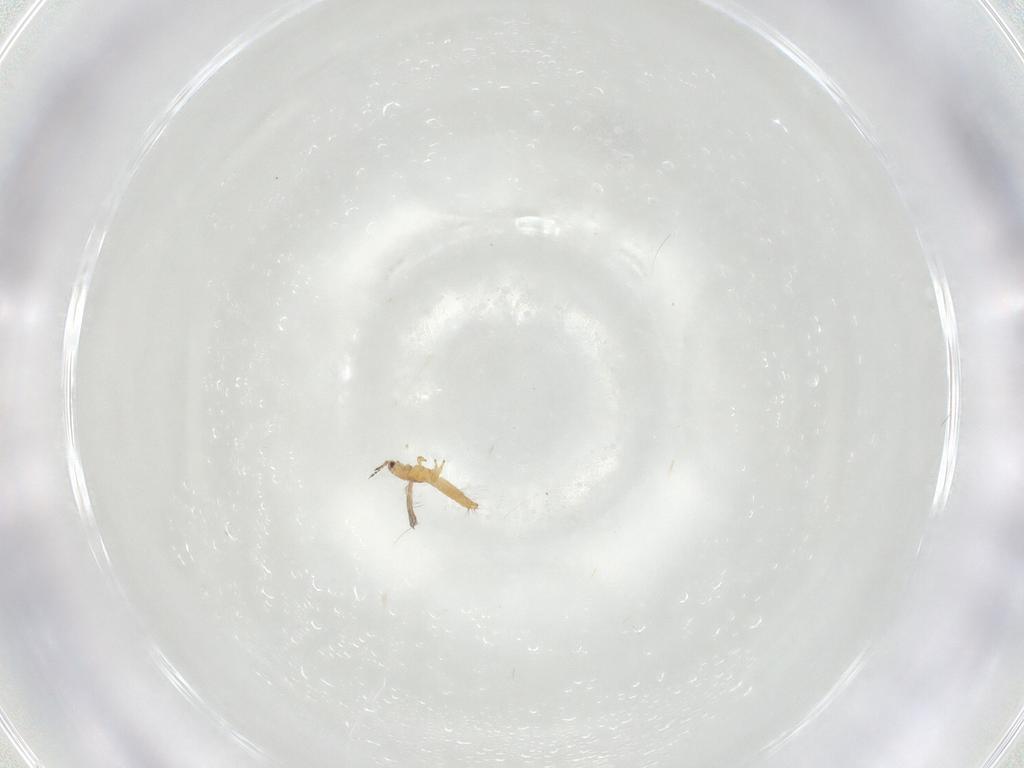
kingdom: Animalia
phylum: Arthropoda
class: Insecta
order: Thysanoptera
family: Thripidae
